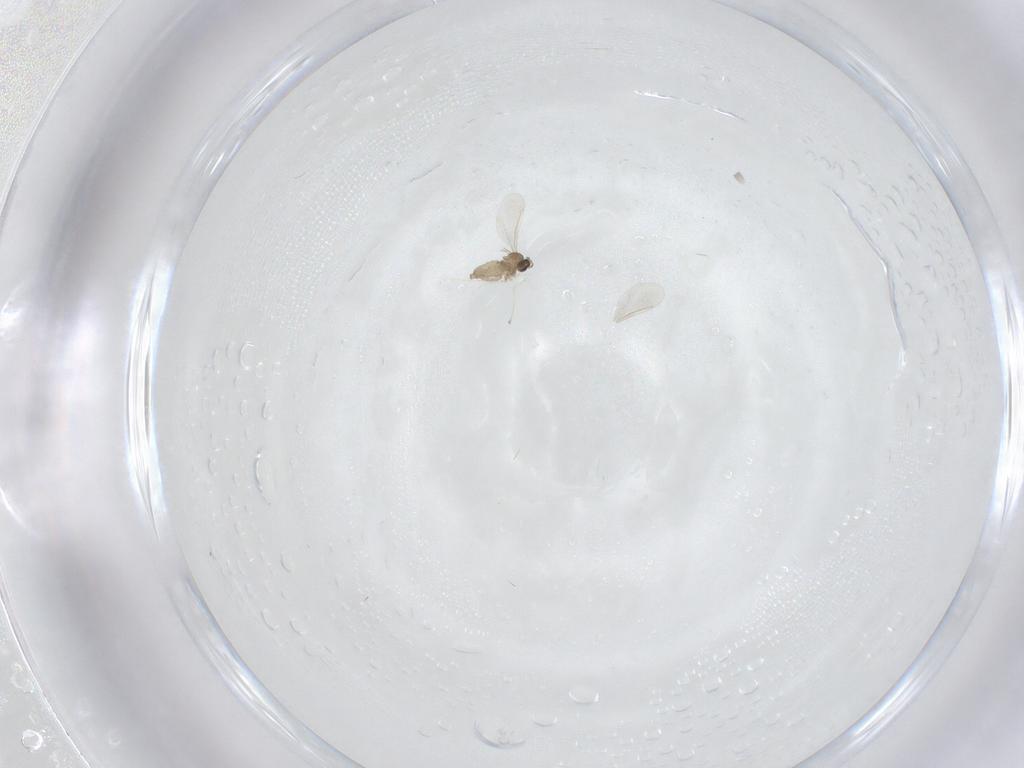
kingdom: Animalia
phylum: Arthropoda
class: Insecta
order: Diptera
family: Cecidomyiidae
